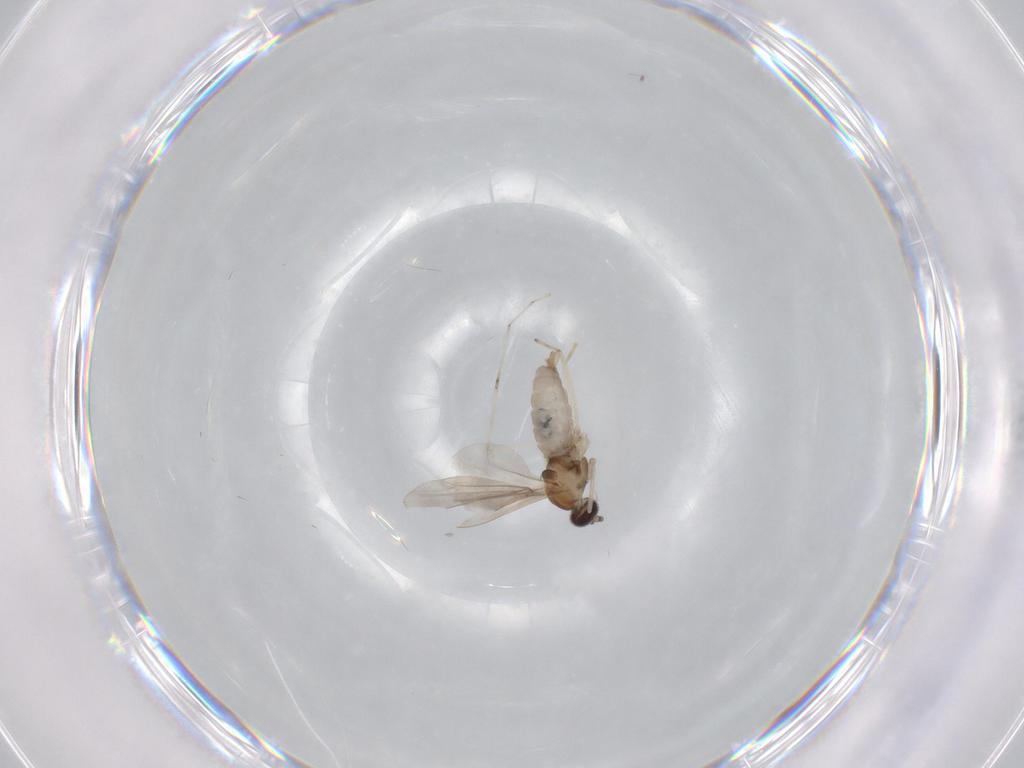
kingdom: Animalia
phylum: Arthropoda
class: Insecta
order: Diptera
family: Cecidomyiidae
